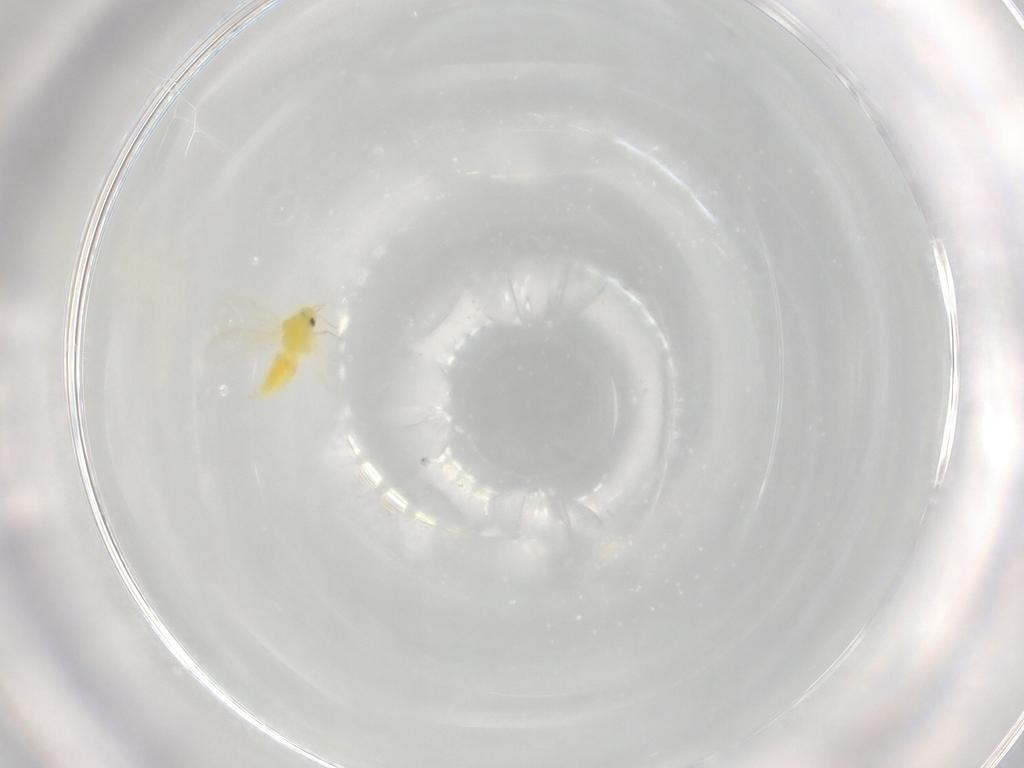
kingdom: Animalia
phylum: Arthropoda
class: Insecta
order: Hemiptera
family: Aleyrodidae
